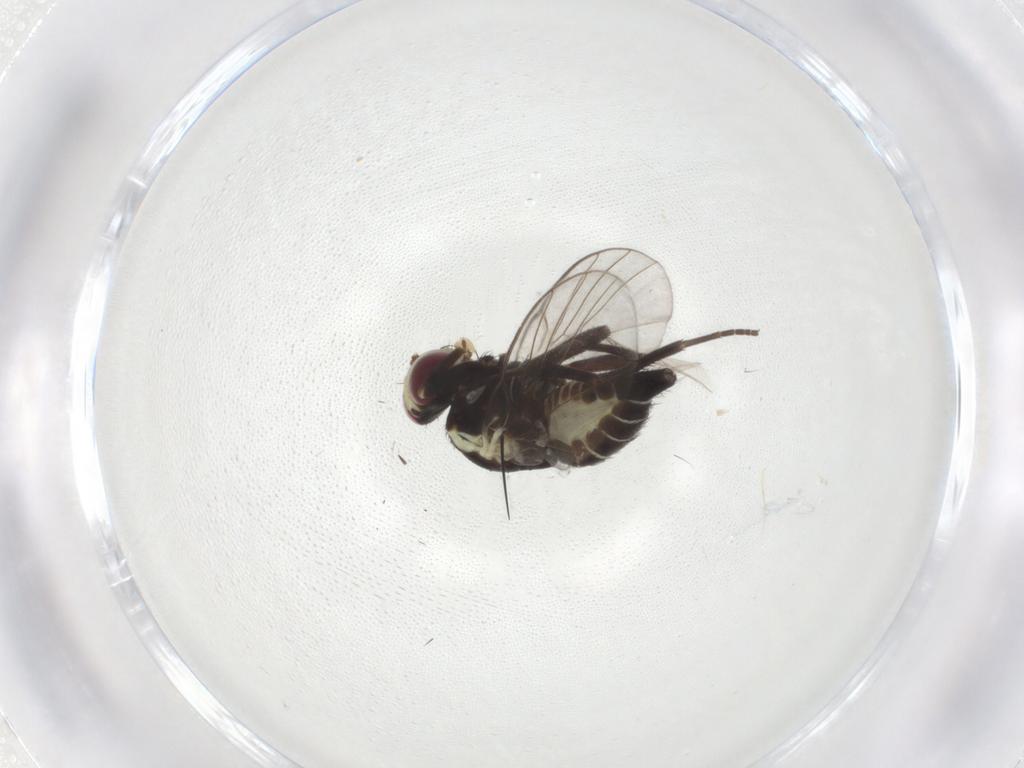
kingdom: Animalia
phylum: Arthropoda
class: Insecta
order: Diptera
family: Agromyzidae
